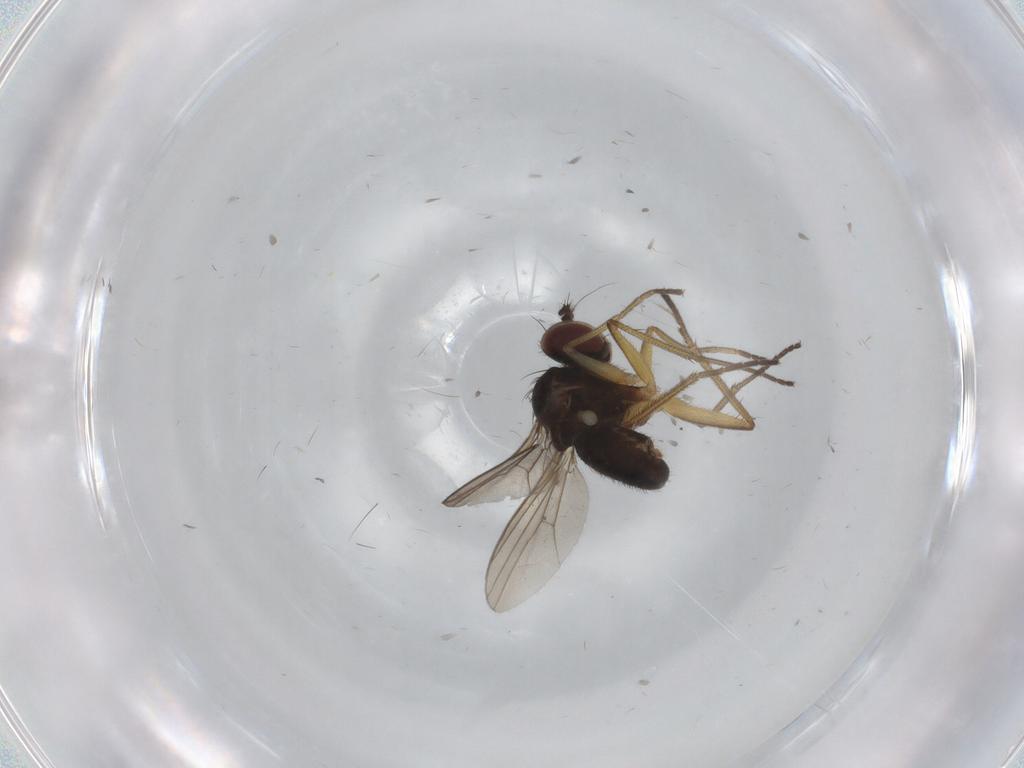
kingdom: Animalia
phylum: Arthropoda
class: Insecta
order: Diptera
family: Dolichopodidae
